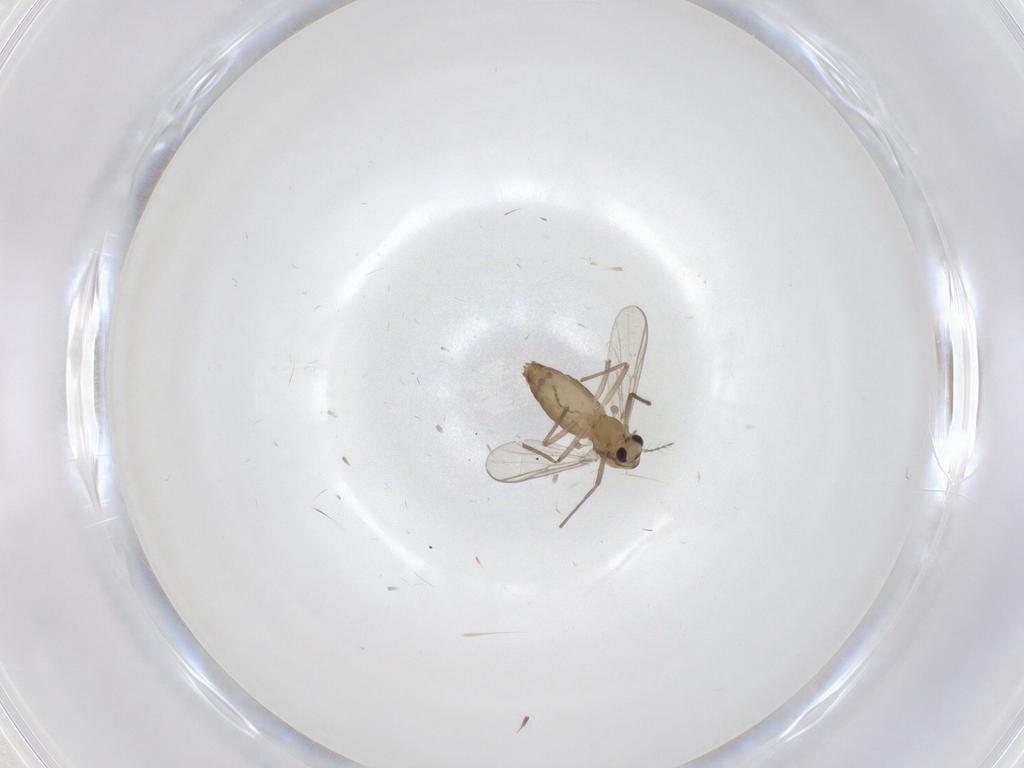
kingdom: Animalia
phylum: Arthropoda
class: Insecta
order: Diptera
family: Chironomidae
